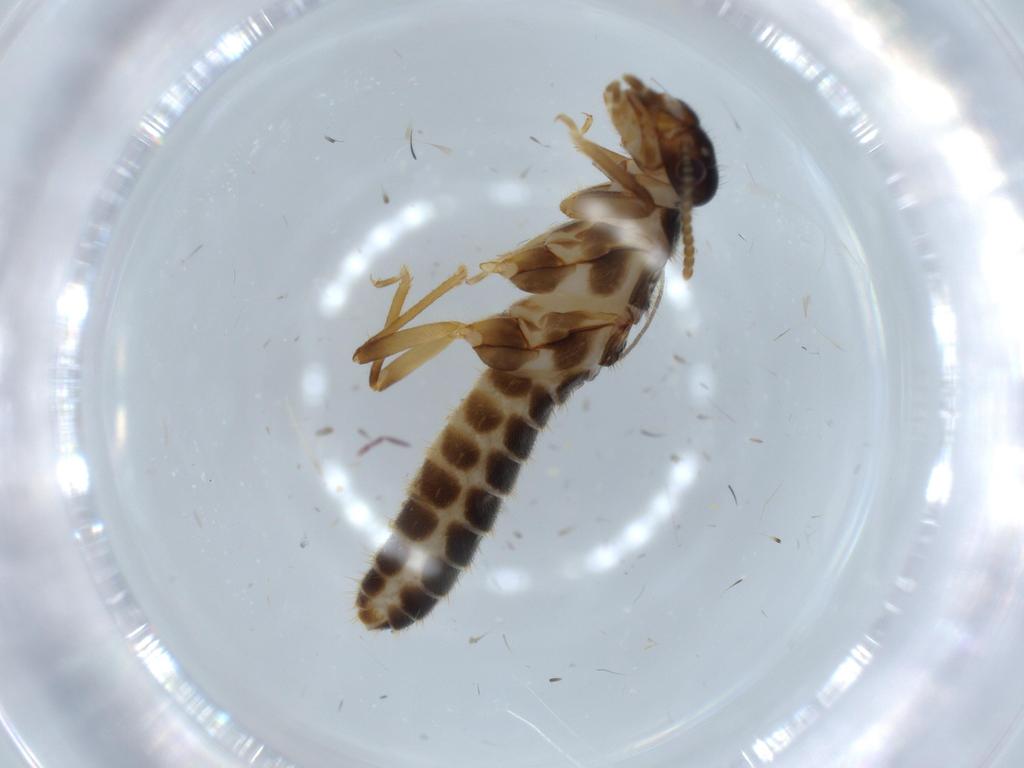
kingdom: Animalia
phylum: Arthropoda
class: Insecta
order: Blattodea
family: Termitidae
